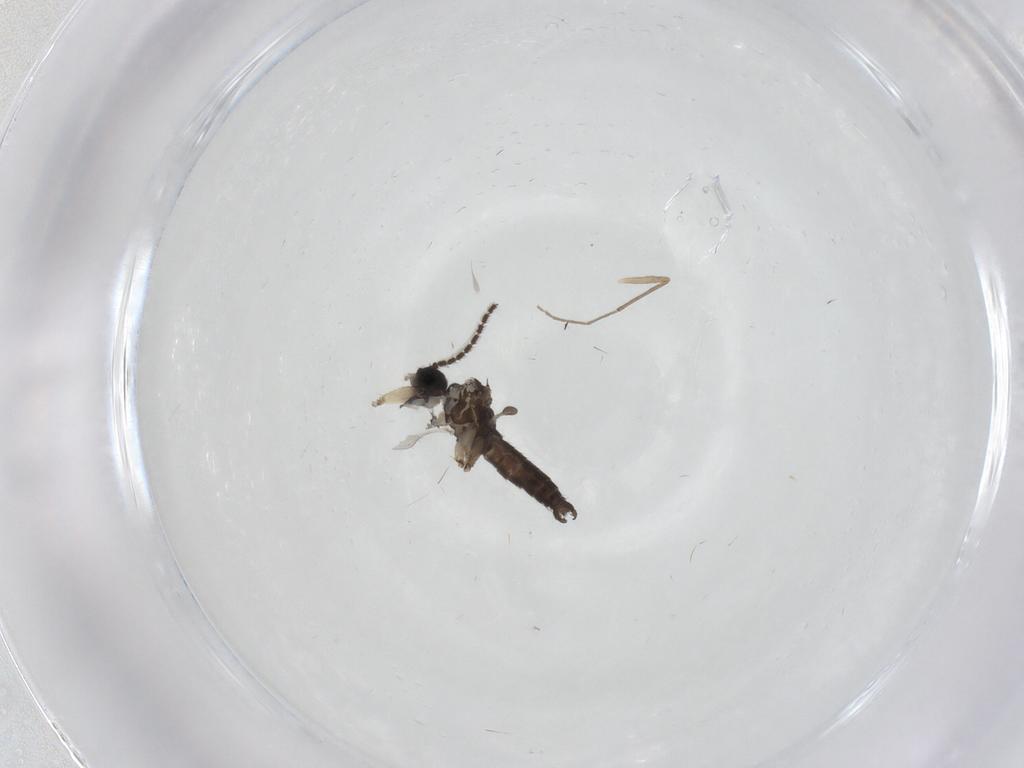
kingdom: Animalia
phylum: Arthropoda
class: Insecta
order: Diptera
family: Sciaridae
